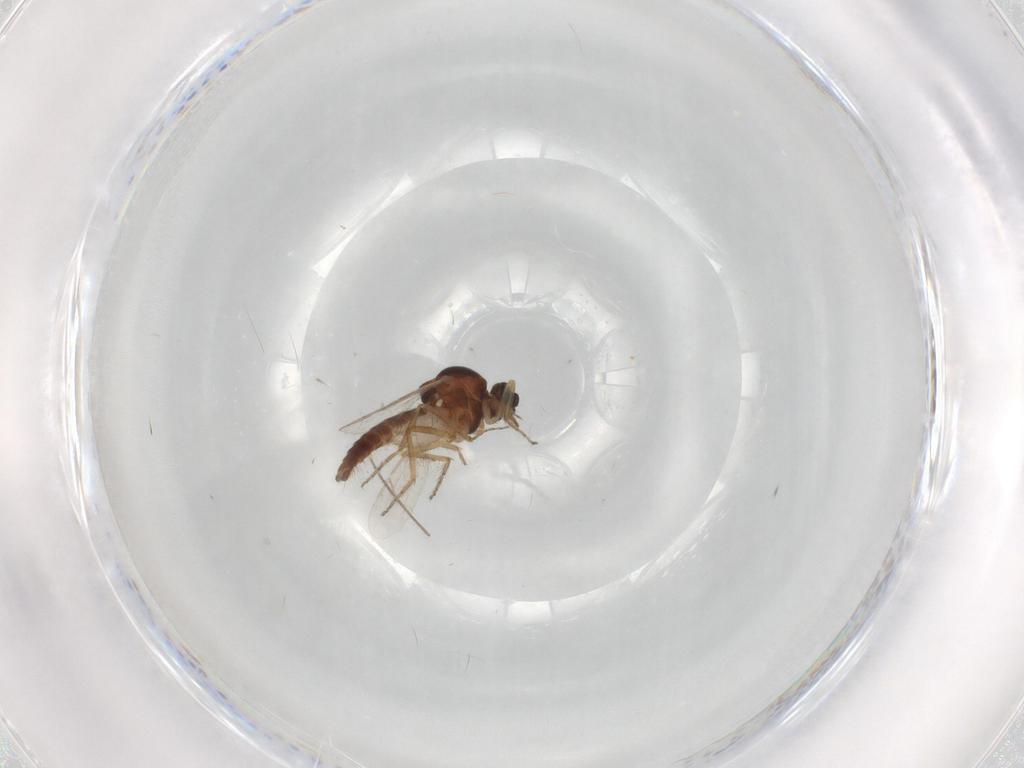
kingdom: Animalia
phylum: Arthropoda
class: Insecta
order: Diptera
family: Ceratopogonidae
